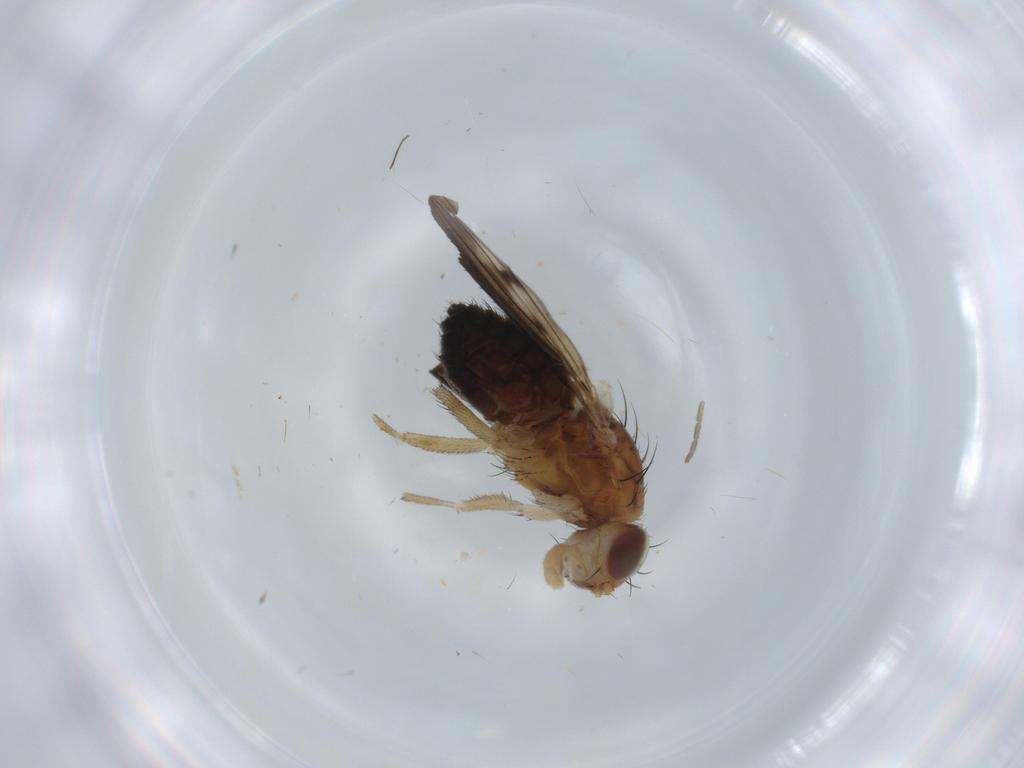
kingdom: Animalia
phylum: Arthropoda
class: Insecta
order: Diptera
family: Heleomyzidae
